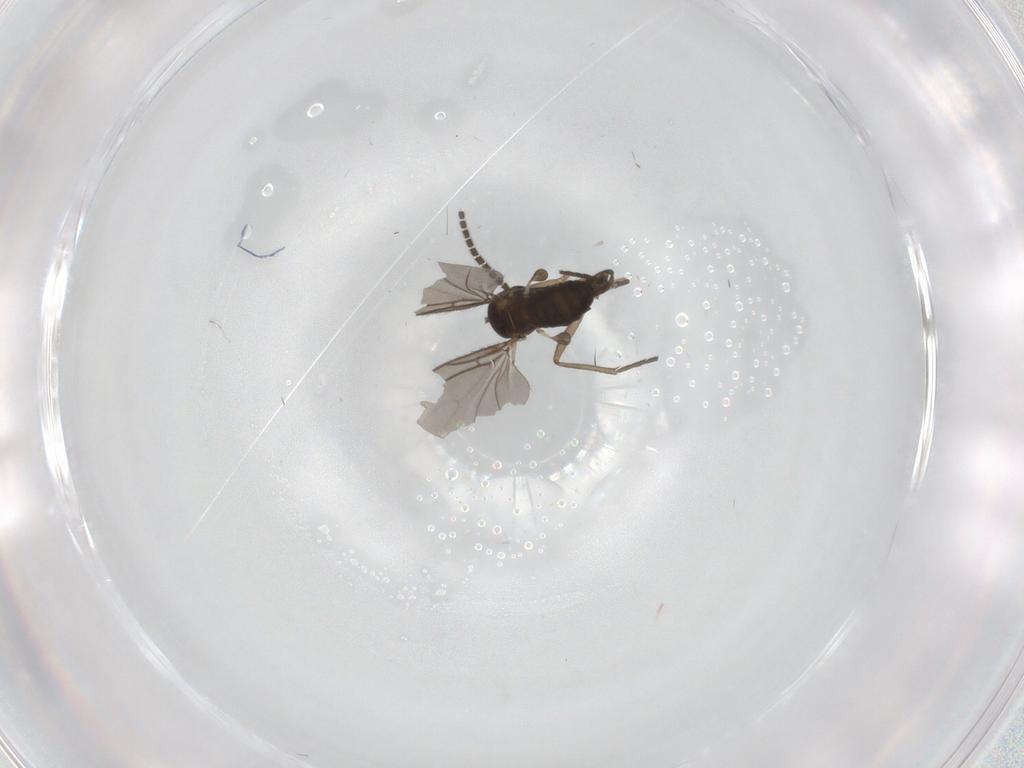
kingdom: Animalia
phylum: Arthropoda
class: Insecta
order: Diptera
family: Sciaridae
